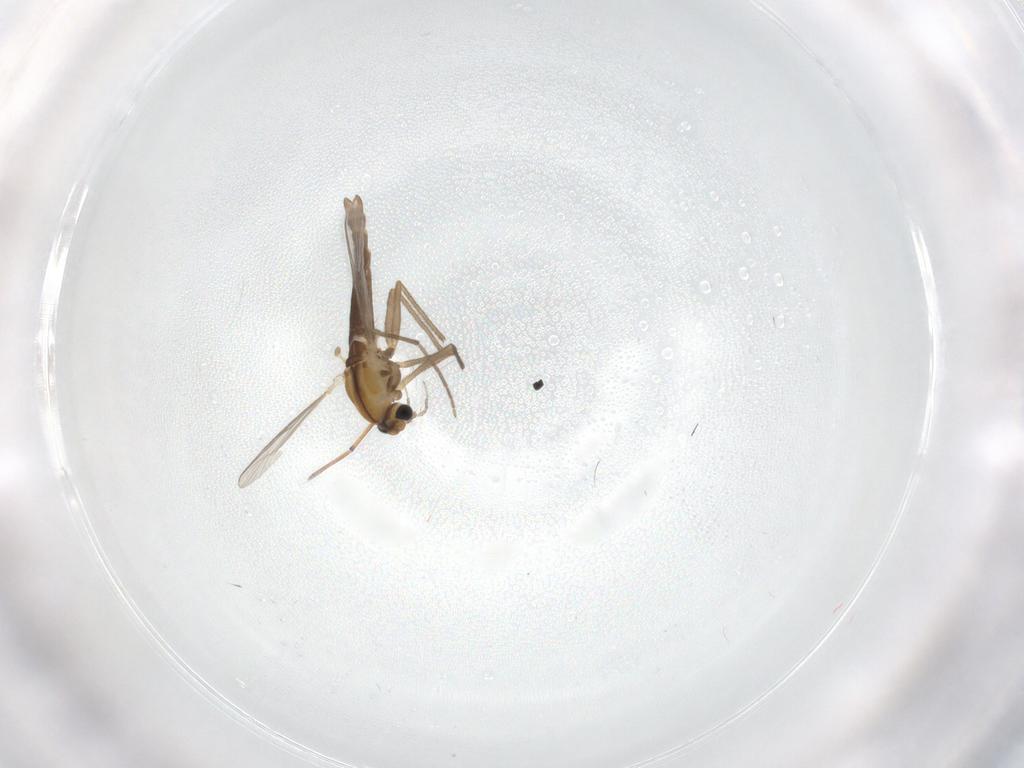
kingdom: Animalia
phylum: Arthropoda
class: Insecta
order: Diptera
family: Chironomidae
